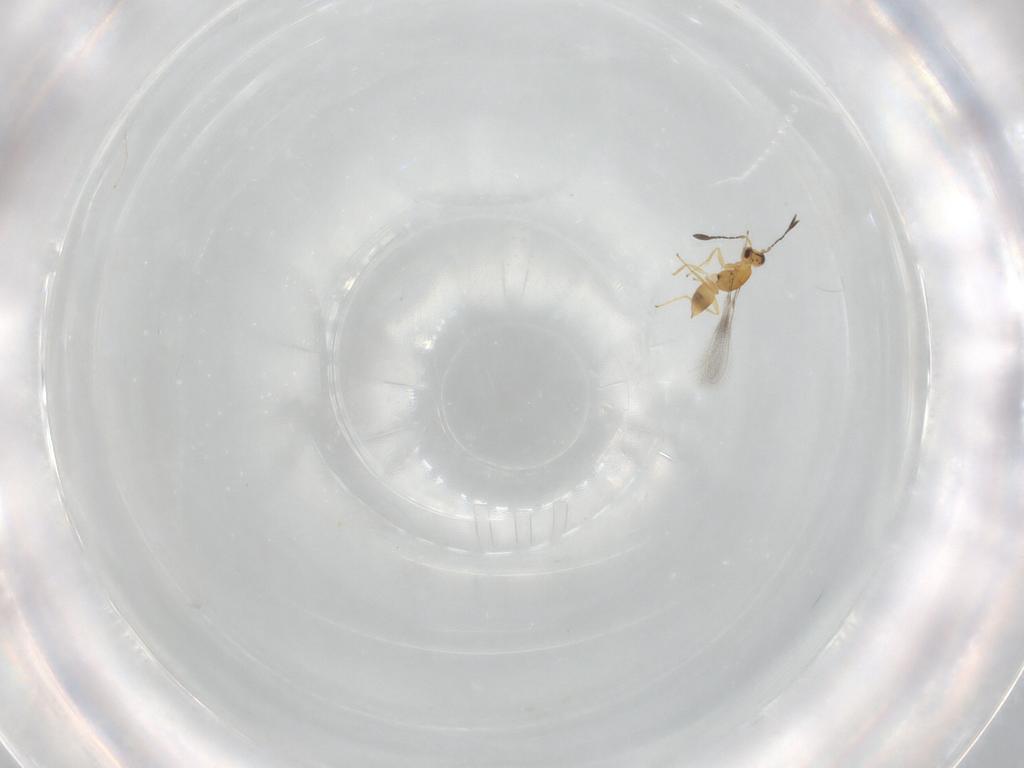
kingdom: Animalia
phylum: Arthropoda
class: Insecta
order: Hymenoptera
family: Mymaridae
